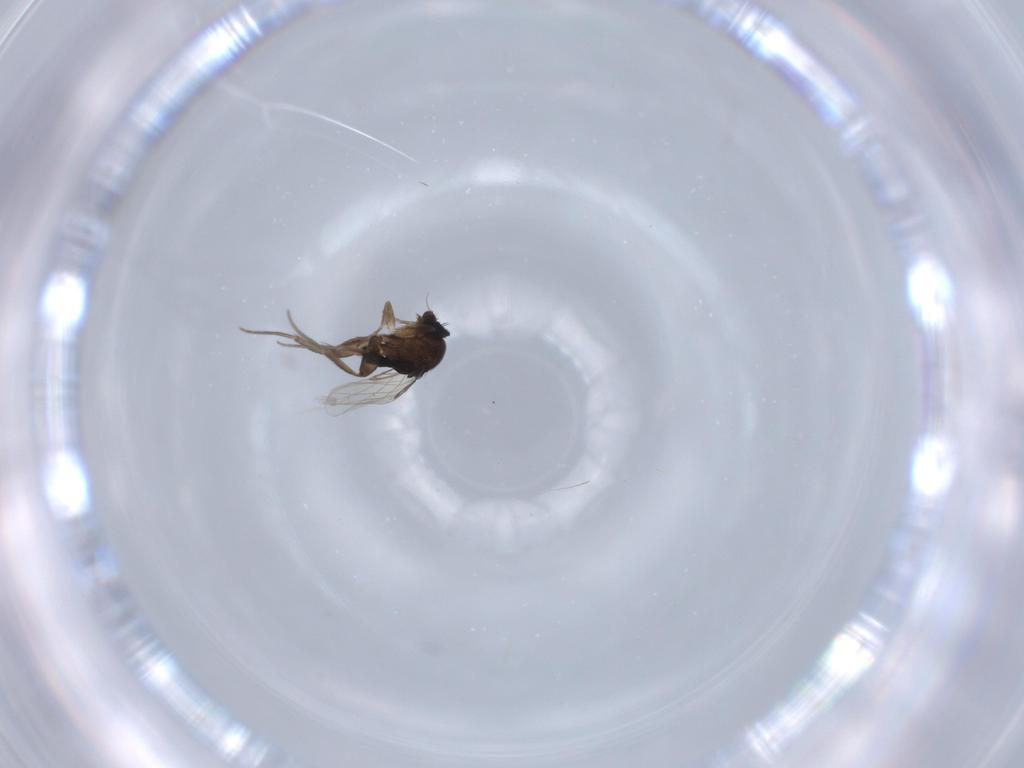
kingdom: Animalia
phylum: Arthropoda
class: Insecta
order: Diptera
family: Phoridae
